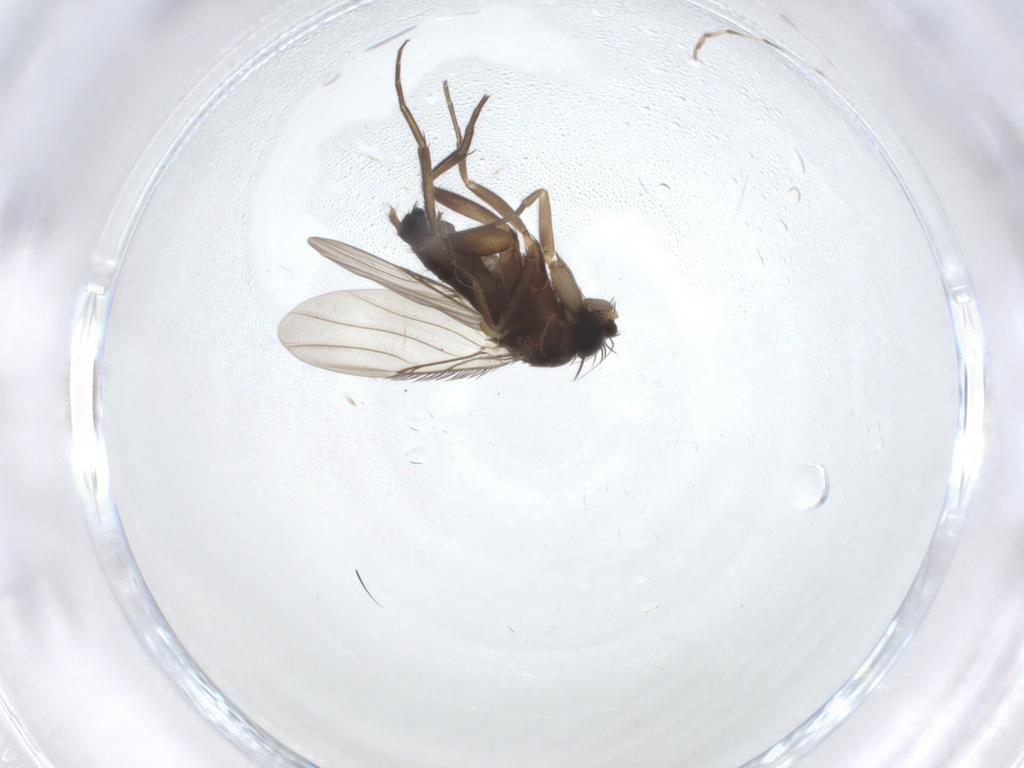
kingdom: Animalia
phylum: Arthropoda
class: Insecta
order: Diptera
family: Phoridae
